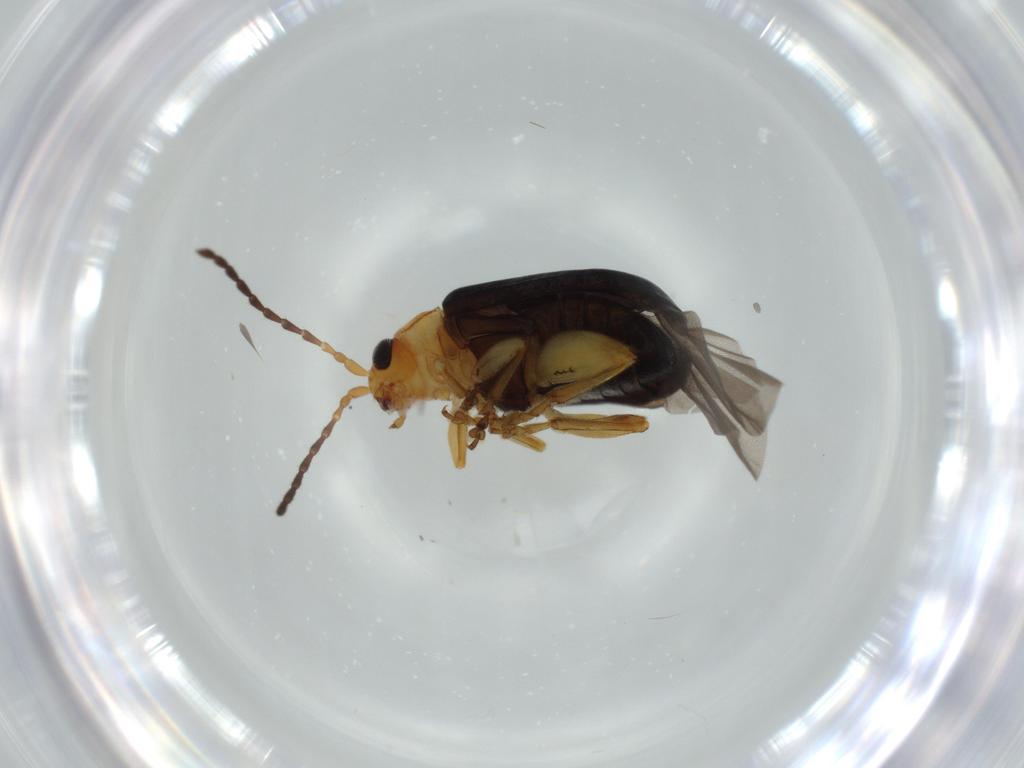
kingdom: Animalia
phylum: Arthropoda
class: Insecta
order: Coleoptera
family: Chrysomelidae
